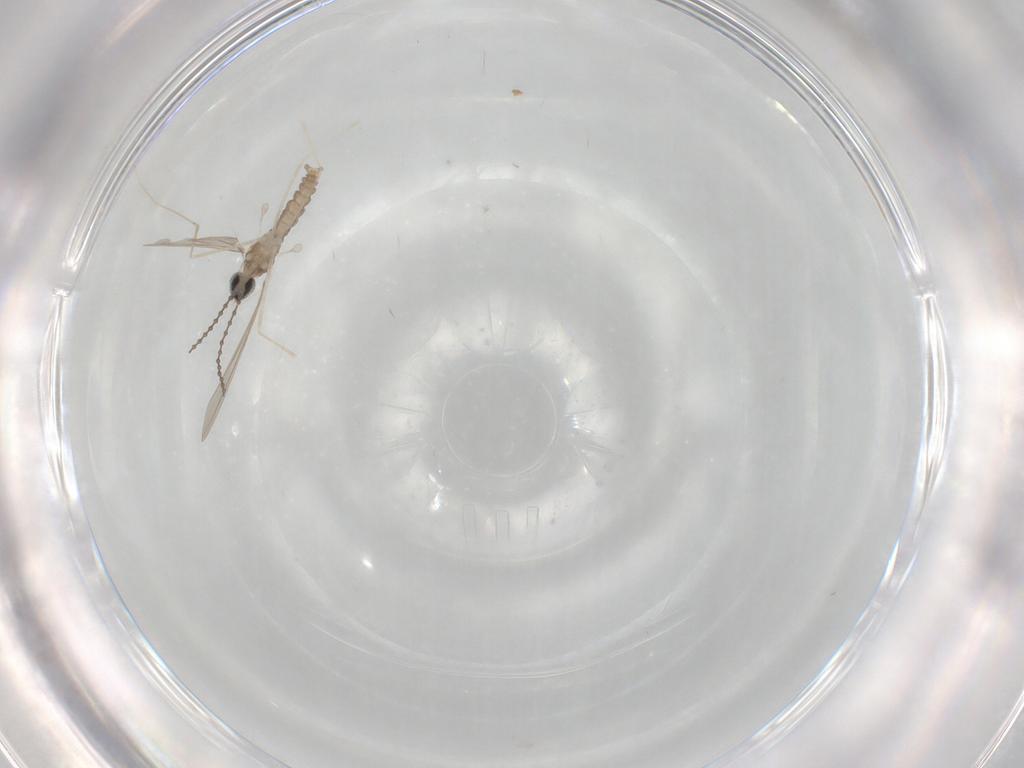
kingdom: Animalia
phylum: Arthropoda
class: Insecta
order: Diptera
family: Cecidomyiidae
